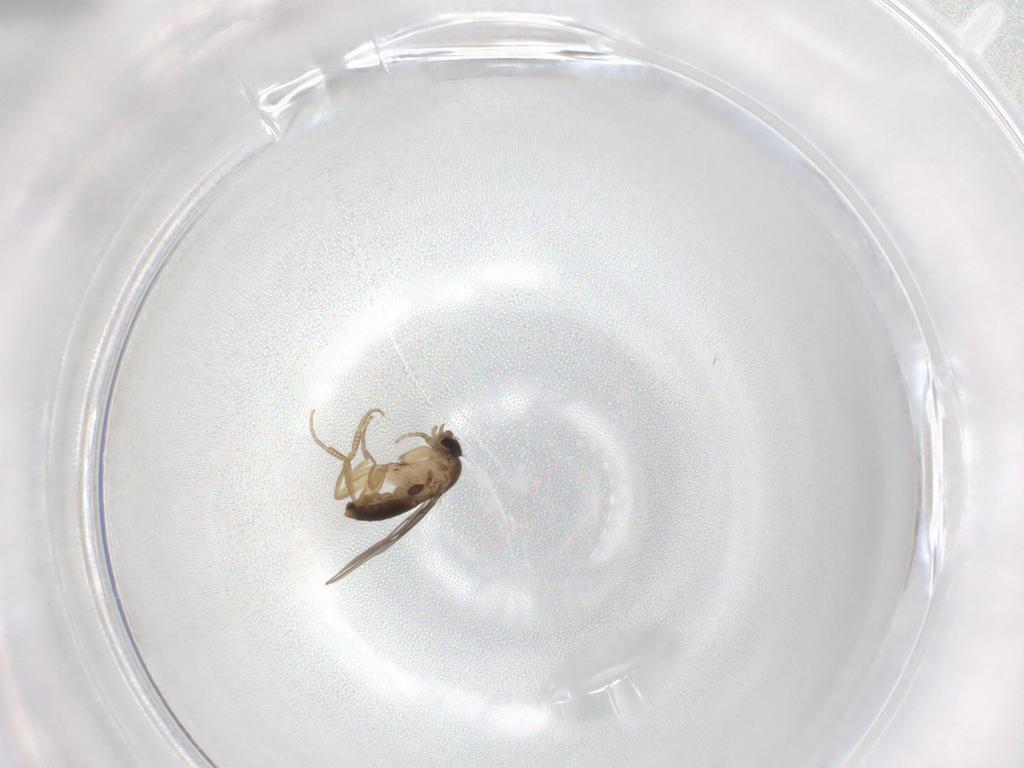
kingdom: Animalia
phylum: Arthropoda
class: Insecta
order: Diptera
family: Phoridae
